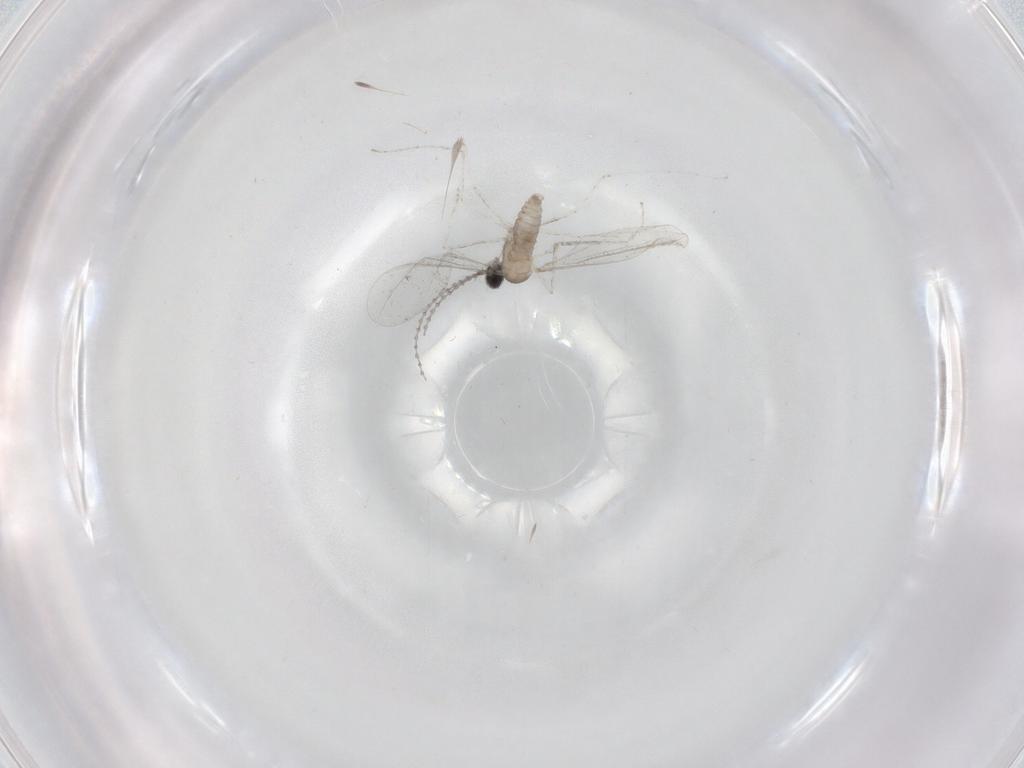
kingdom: Animalia
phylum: Arthropoda
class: Insecta
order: Diptera
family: Cecidomyiidae
